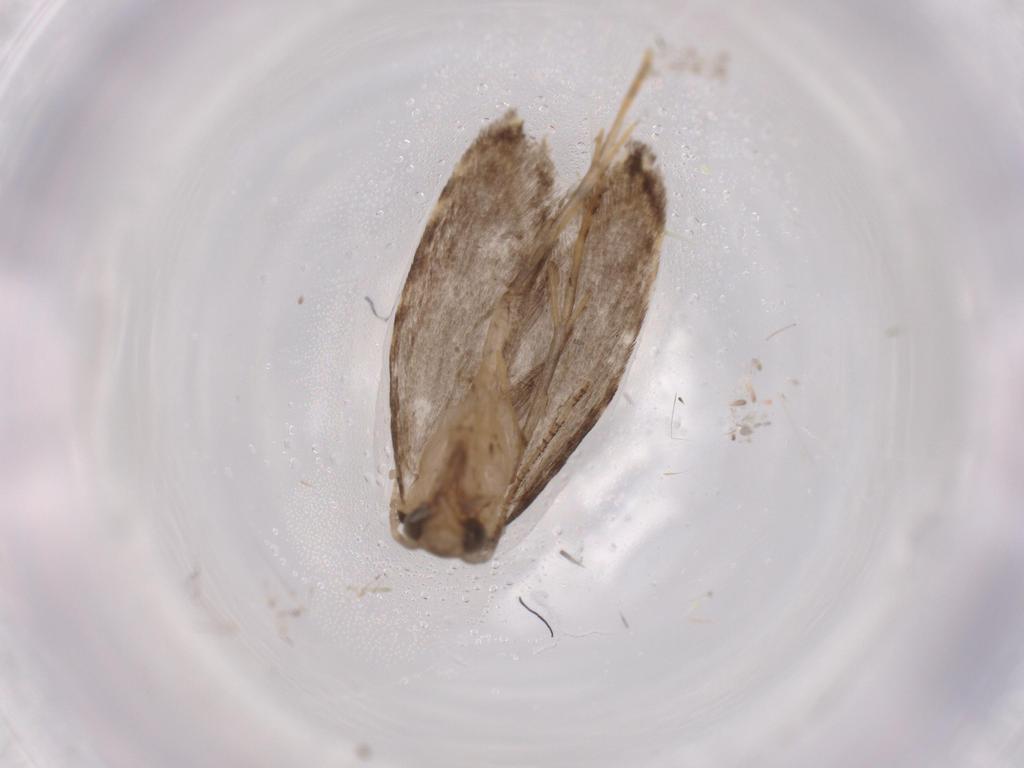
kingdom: Animalia
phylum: Arthropoda
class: Insecta
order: Lepidoptera
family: Tineidae
